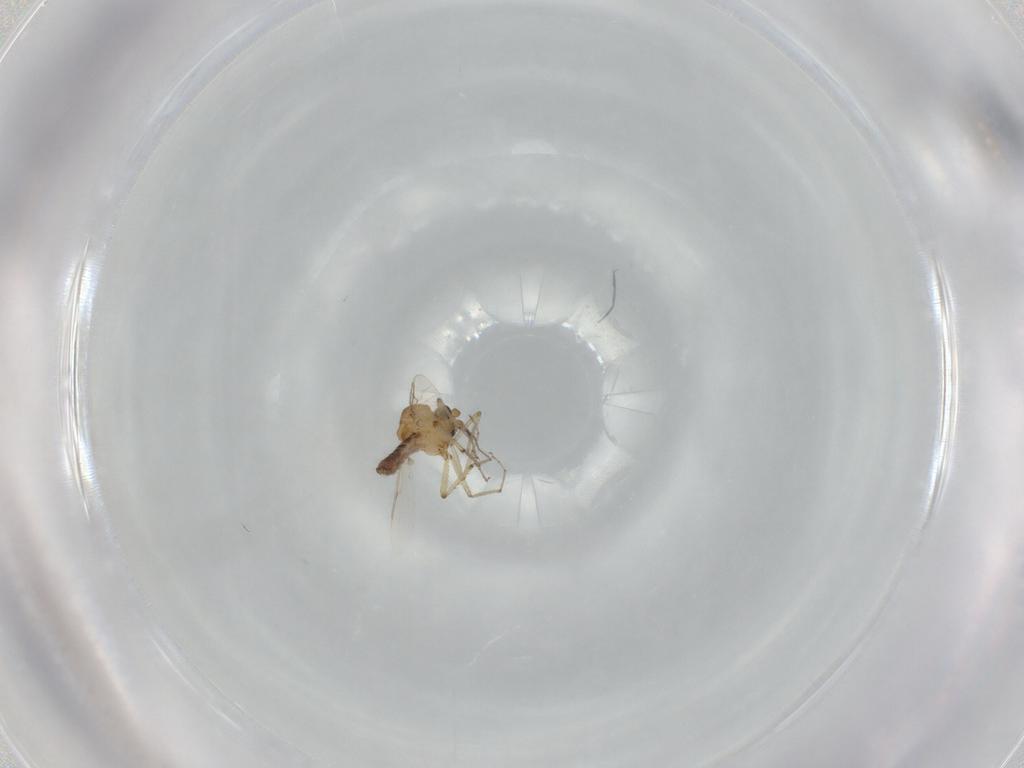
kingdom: Animalia
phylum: Arthropoda
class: Insecta
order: Diptera
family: Ceratopogonidae
